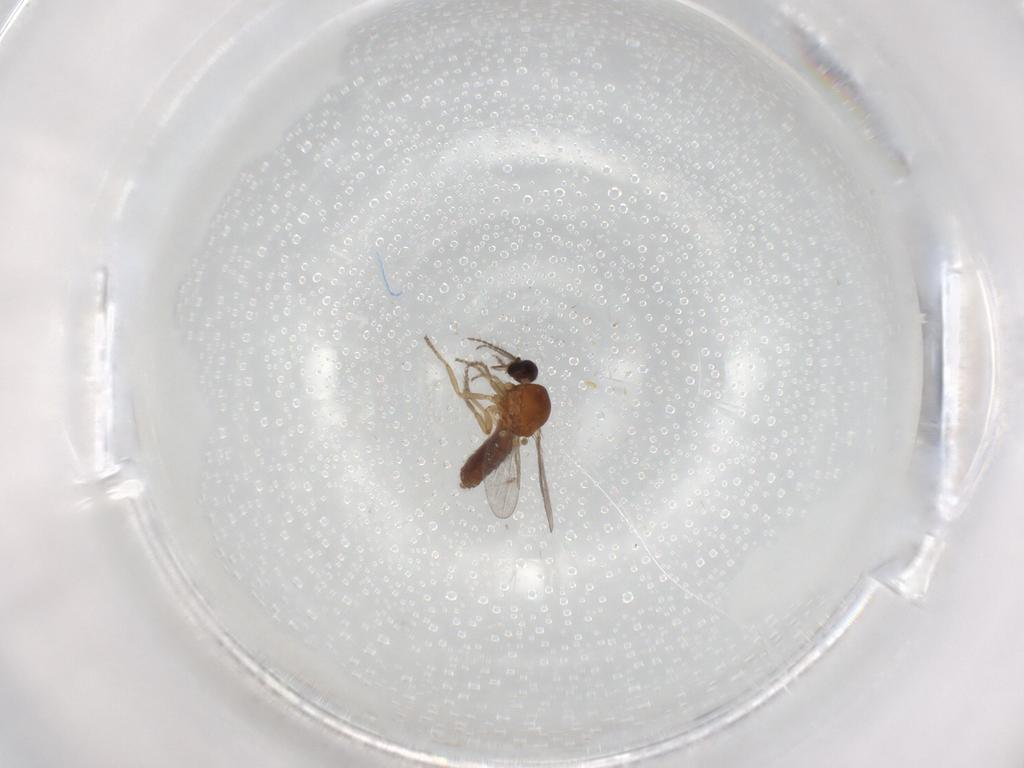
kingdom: Animalia
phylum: Arthropoda
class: Insecta
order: Diptera
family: Ceratopogonidae
